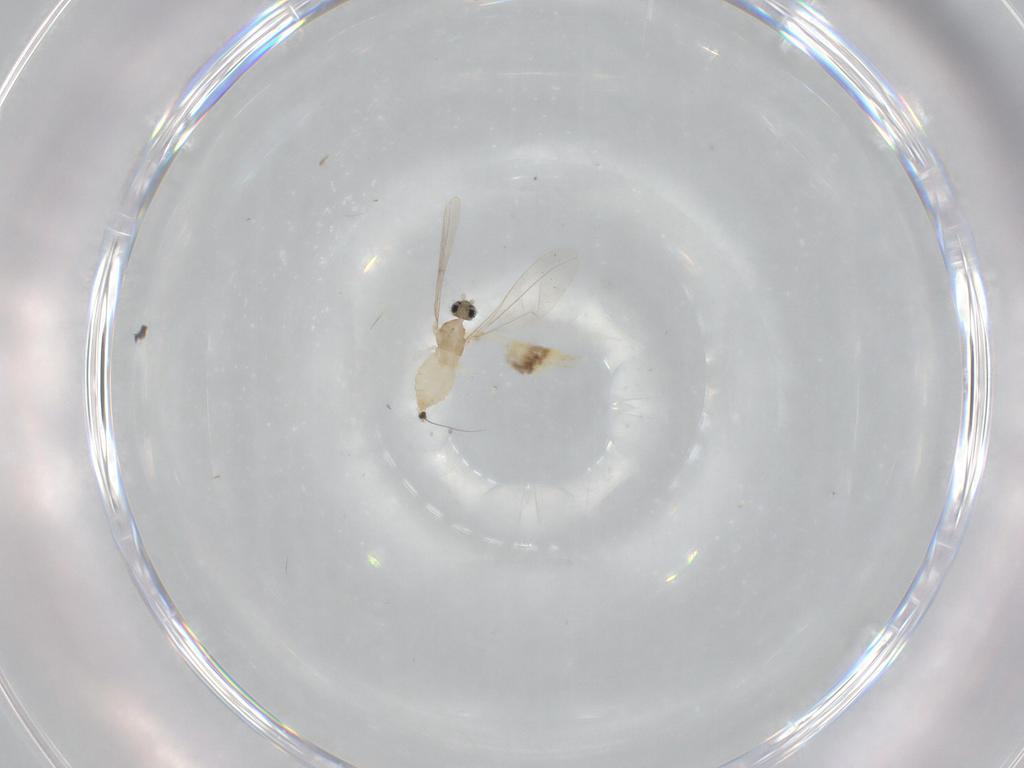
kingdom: Animalia
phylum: Arthropoda
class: Insecta
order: Diptera
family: Cecidomyiidae
